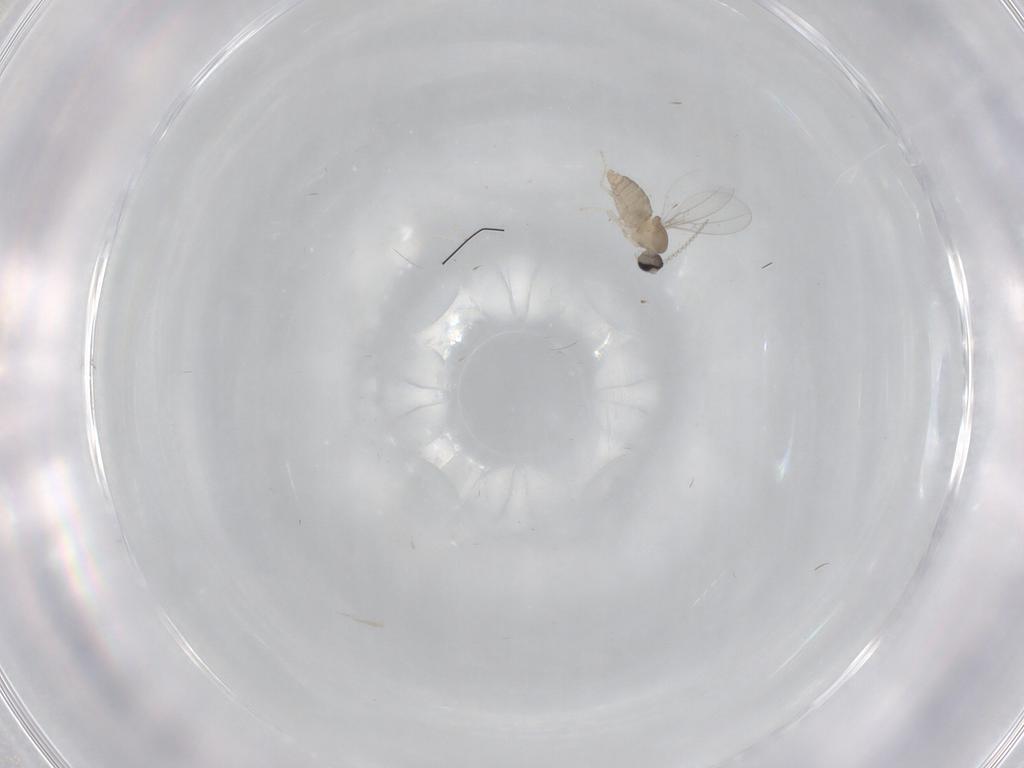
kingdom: Animalia
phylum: Arthropoda
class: Insecta
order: Diptera
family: Cecidomyiidae
